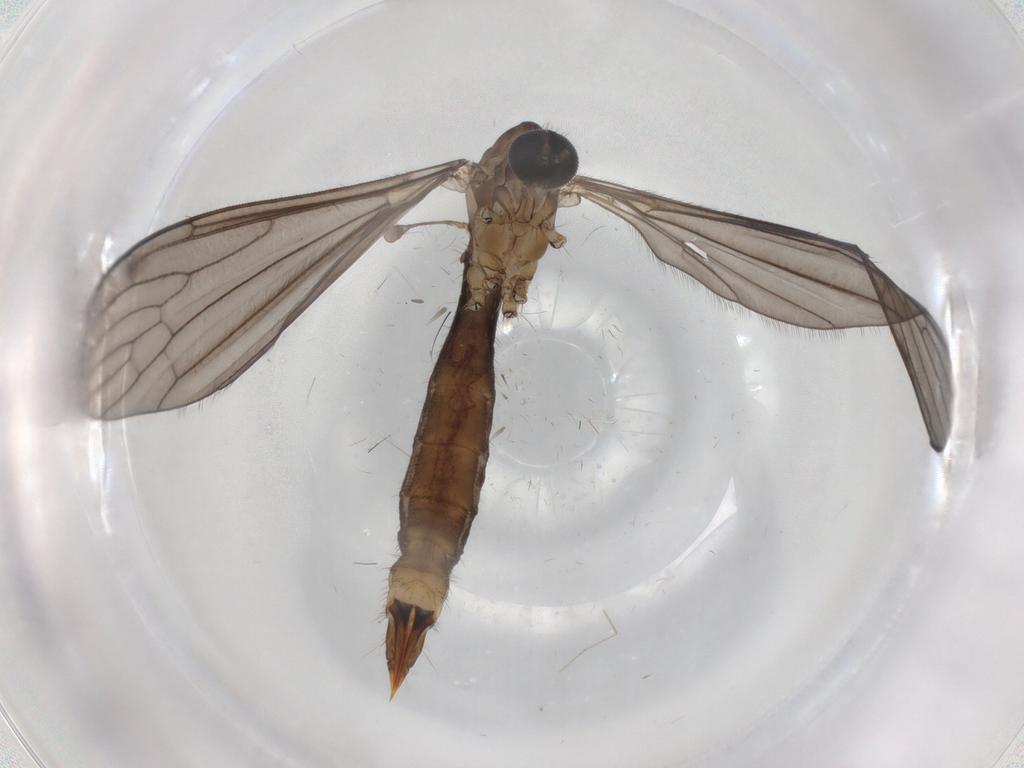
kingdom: Animalia
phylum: Arthropoda
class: Insecta
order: Diptera
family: Limoniidae
